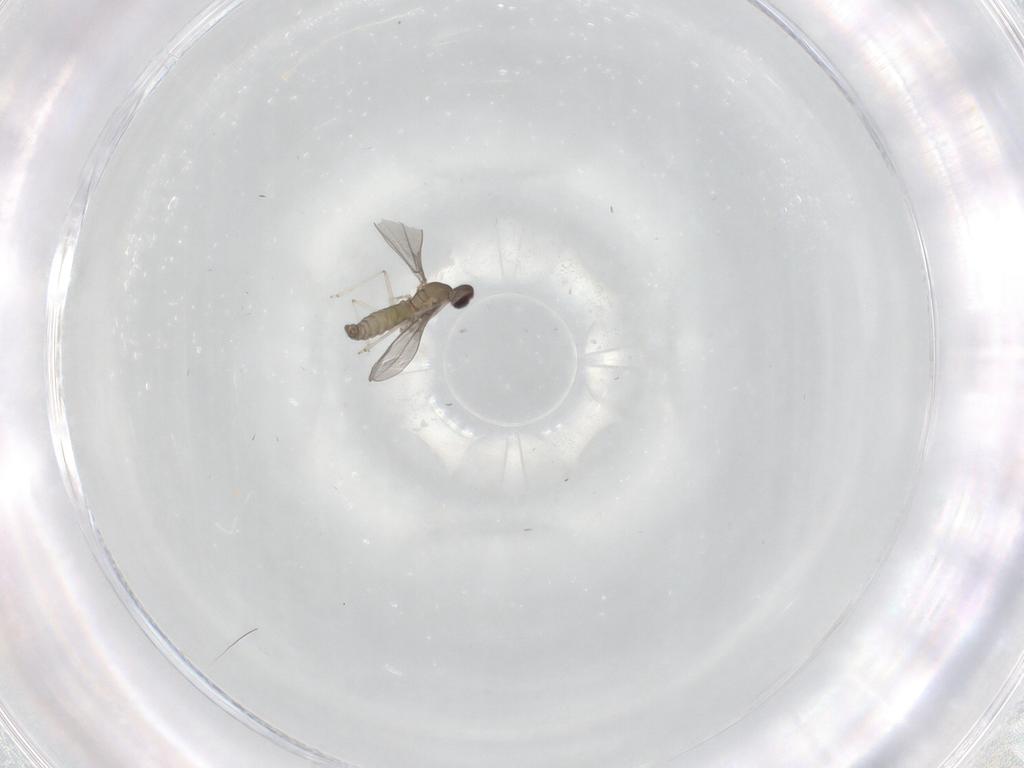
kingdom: Animalia
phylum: Arthropoda
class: Insecta
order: Diptera
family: Ceratopogonidae
